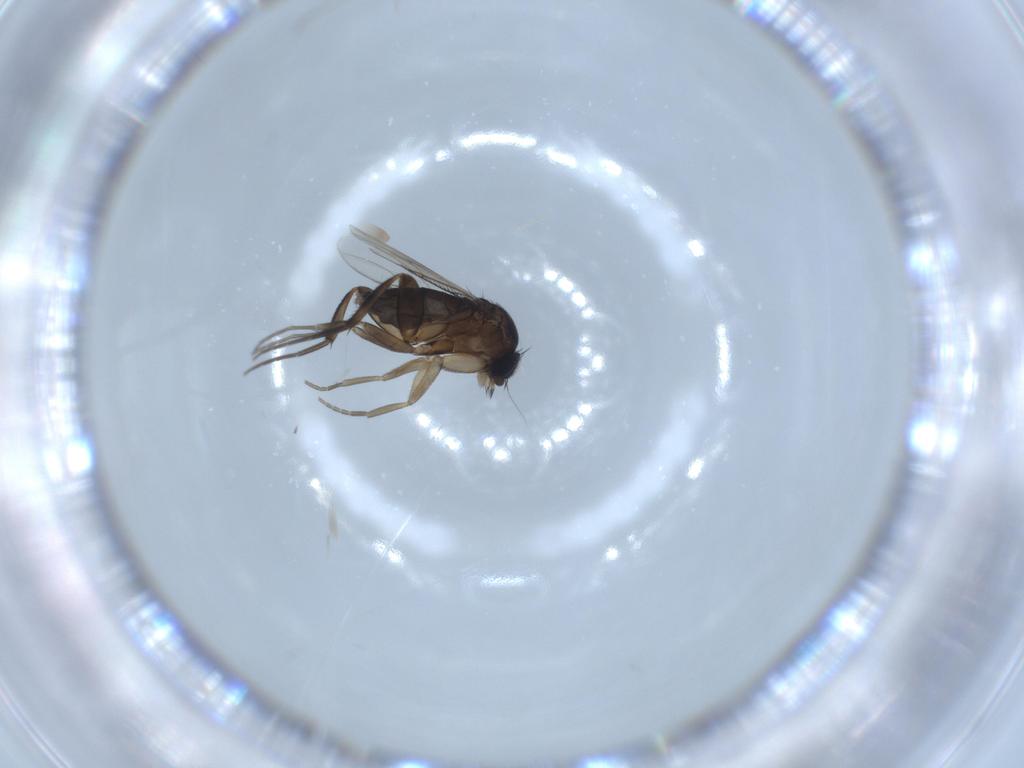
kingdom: Animalia
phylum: Arthropoda
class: Insecta
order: Diptera
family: Phoridae
